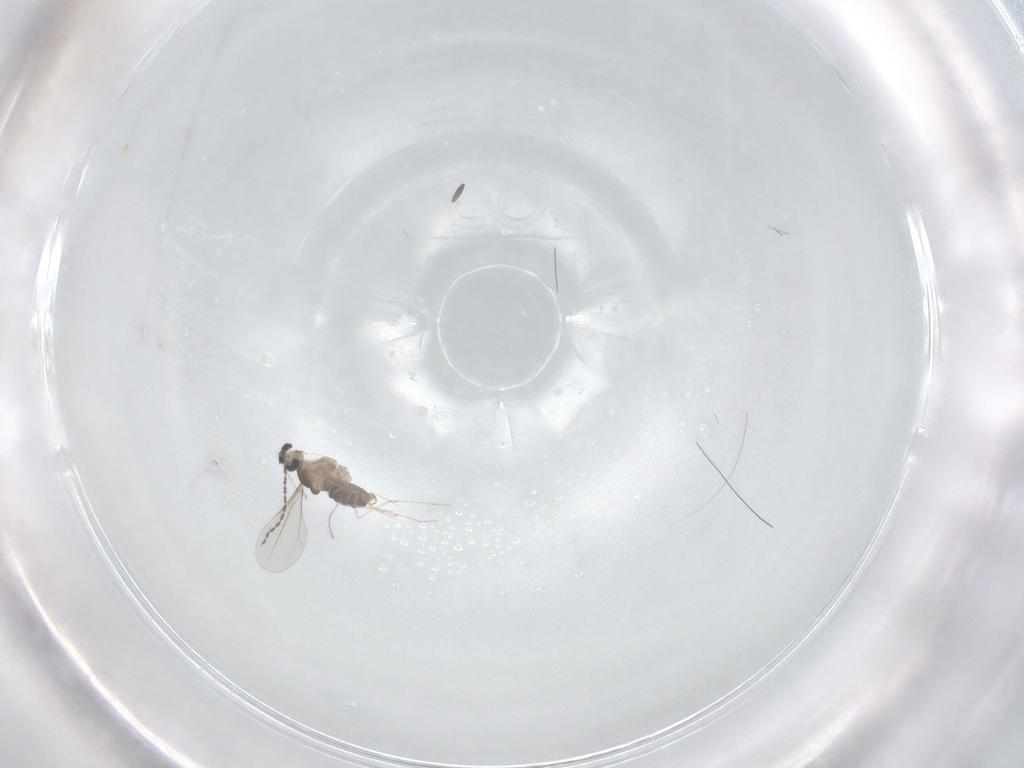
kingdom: Animalia
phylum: Arthropoda
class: Insecta
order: Diptera
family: Cecidomyiidae
